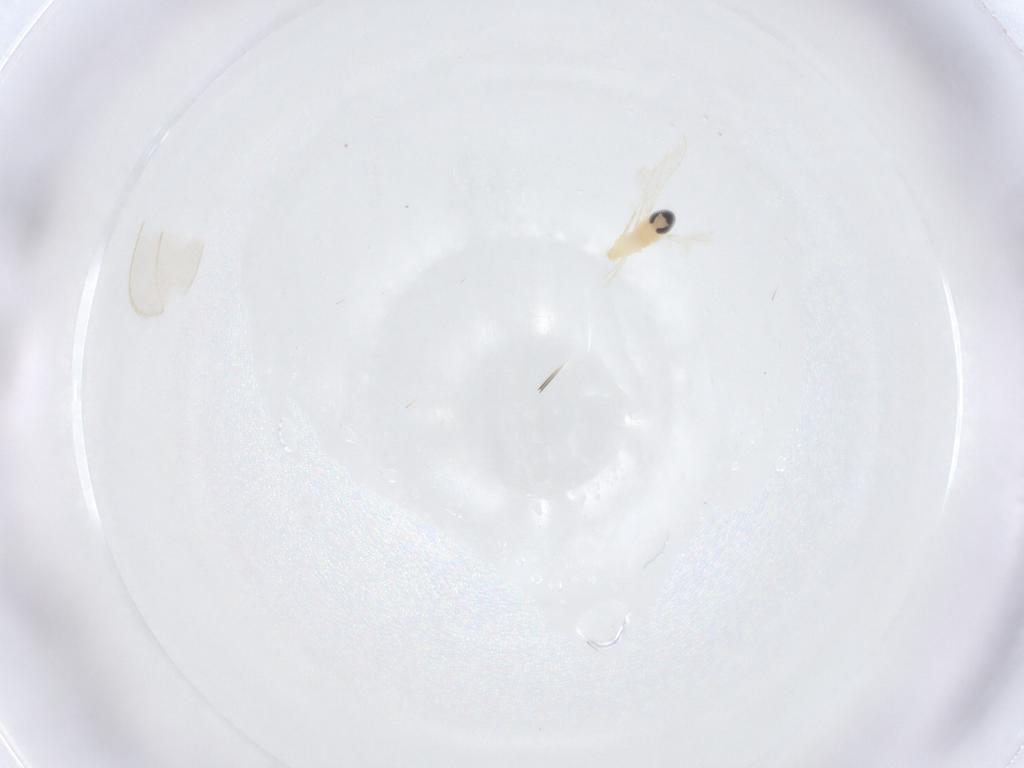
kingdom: Animalia
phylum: Arthropoda
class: Insecta
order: Diptera
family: Cecidomyiidae
